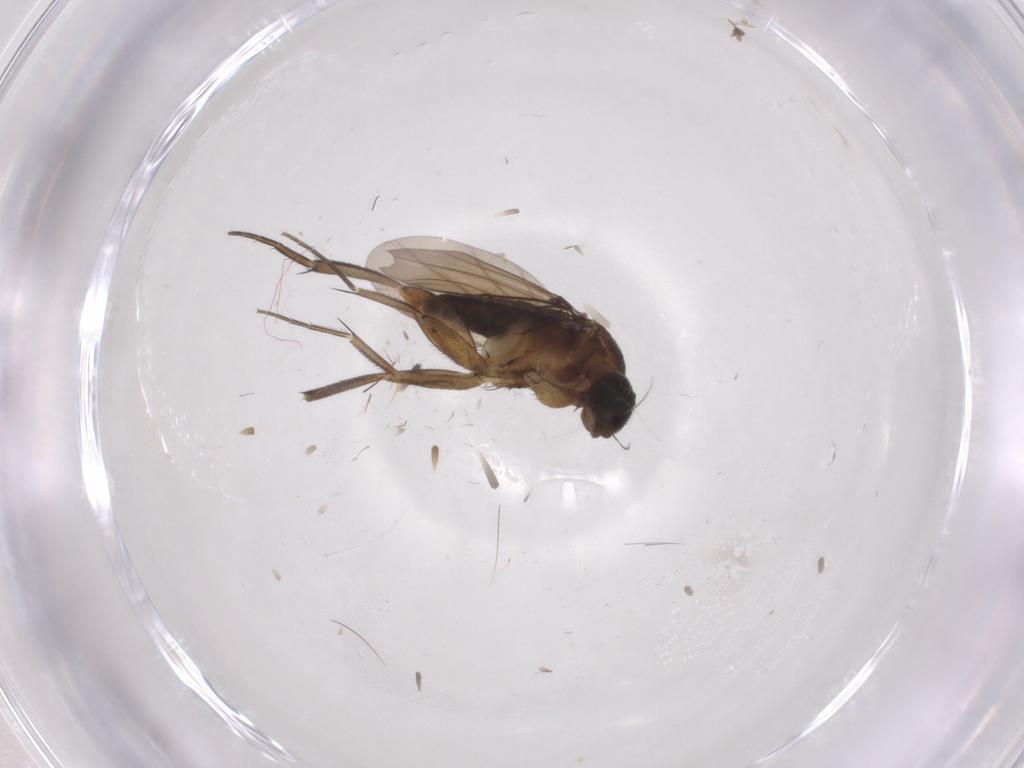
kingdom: Animalia
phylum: Arthropoda
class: Insecta
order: Diptera
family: Phoridae
